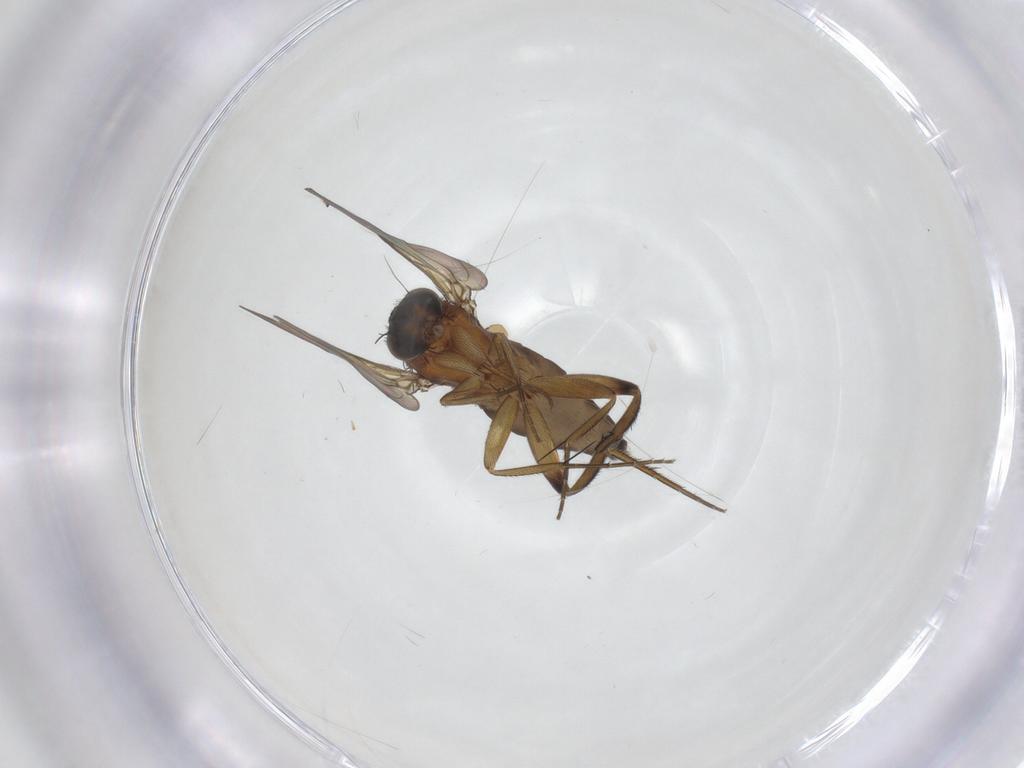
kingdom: Animalia
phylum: Arthropoda
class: Insecta
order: Diptera
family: Phoridae
